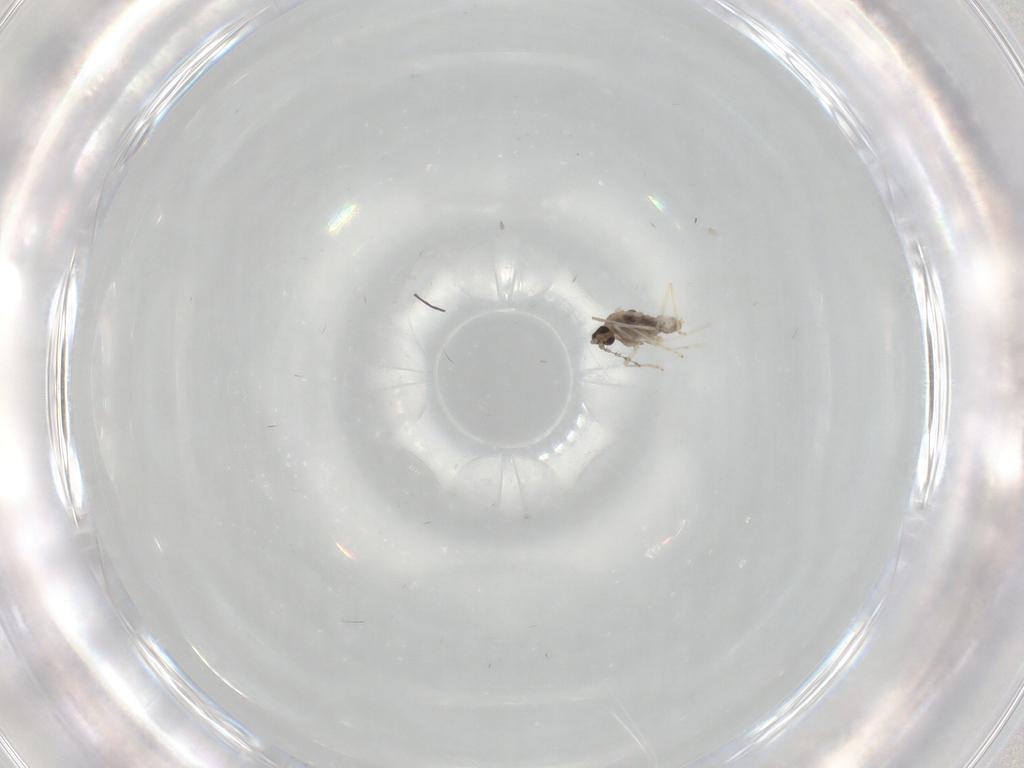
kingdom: Animalia
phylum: Arthropoda
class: Insecta
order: Diptera
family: Cecidomyiidae
